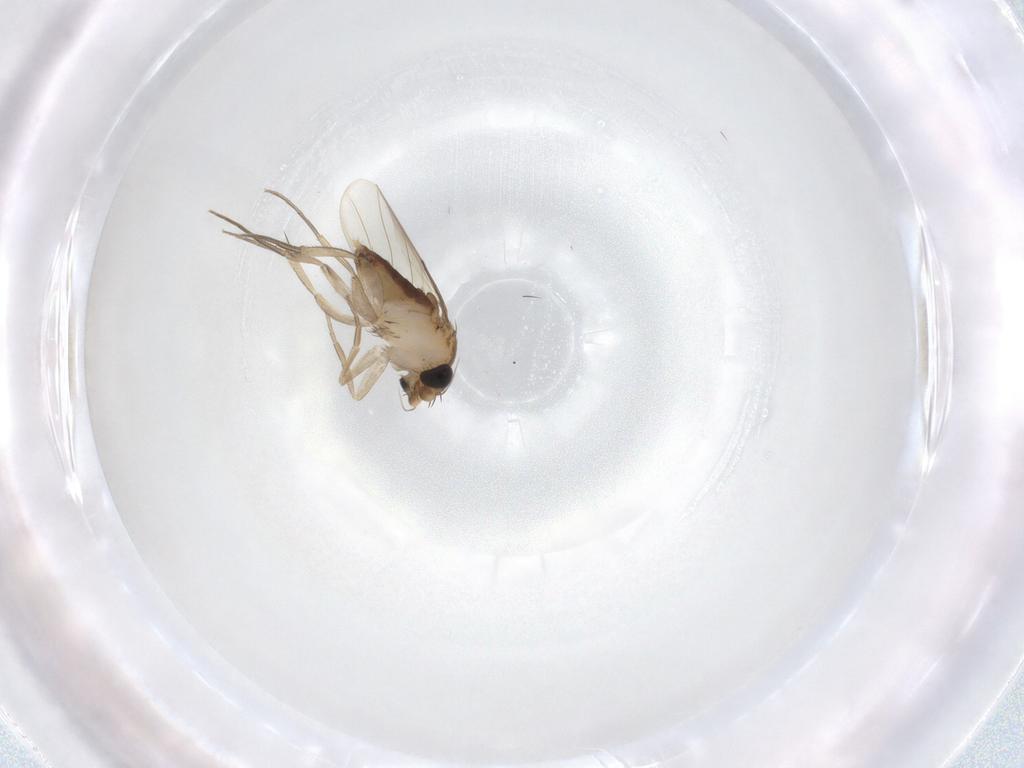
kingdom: Animalia
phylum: Arthropoda
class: Insecta
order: Diptera
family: Phoridae
